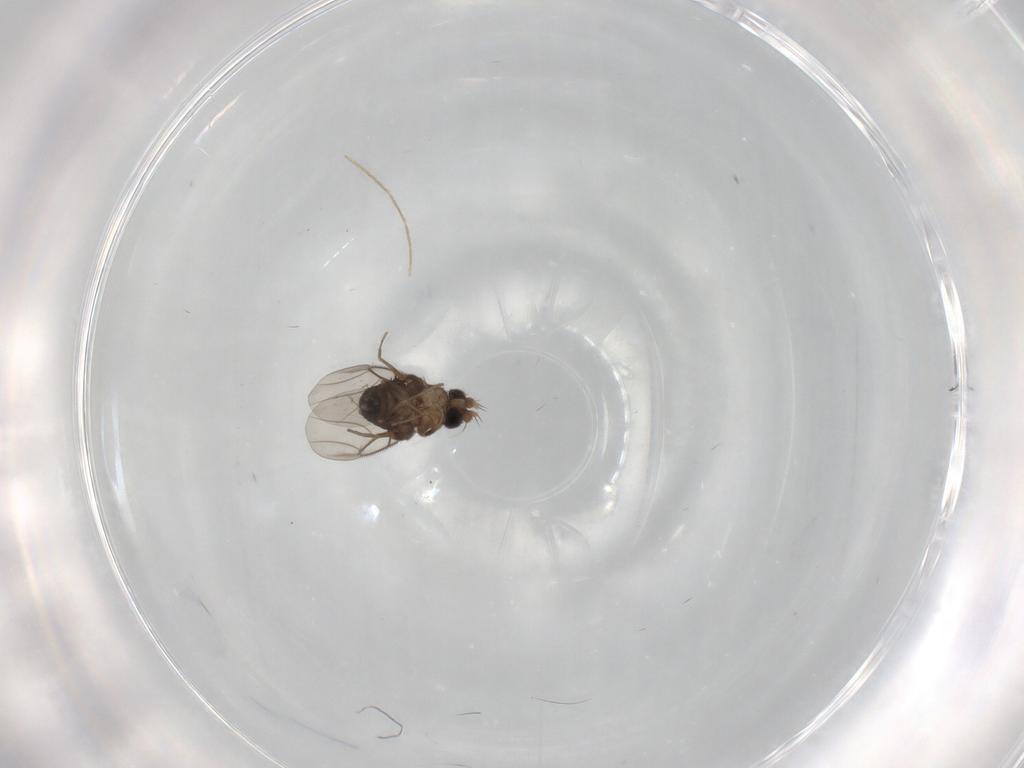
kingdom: Animalia
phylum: Arthropoda
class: Insecta
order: Diptera
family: Phoridae
